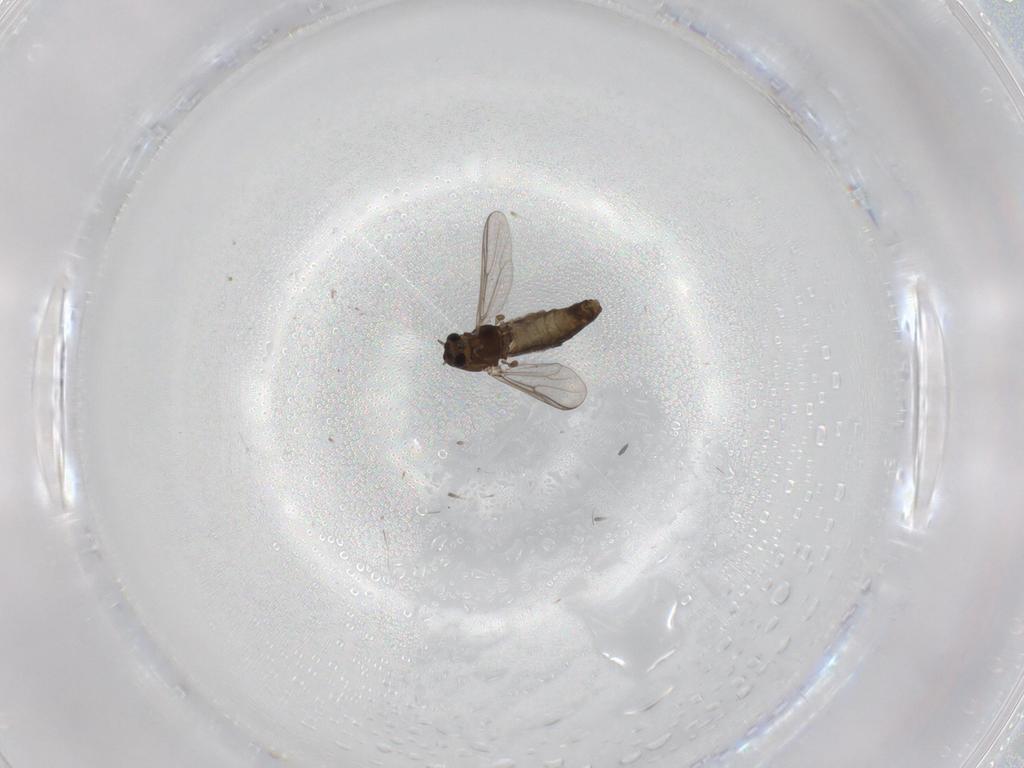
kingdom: Animalia
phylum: Arthropoda
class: Insecta
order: Diptera
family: Chironomidae
